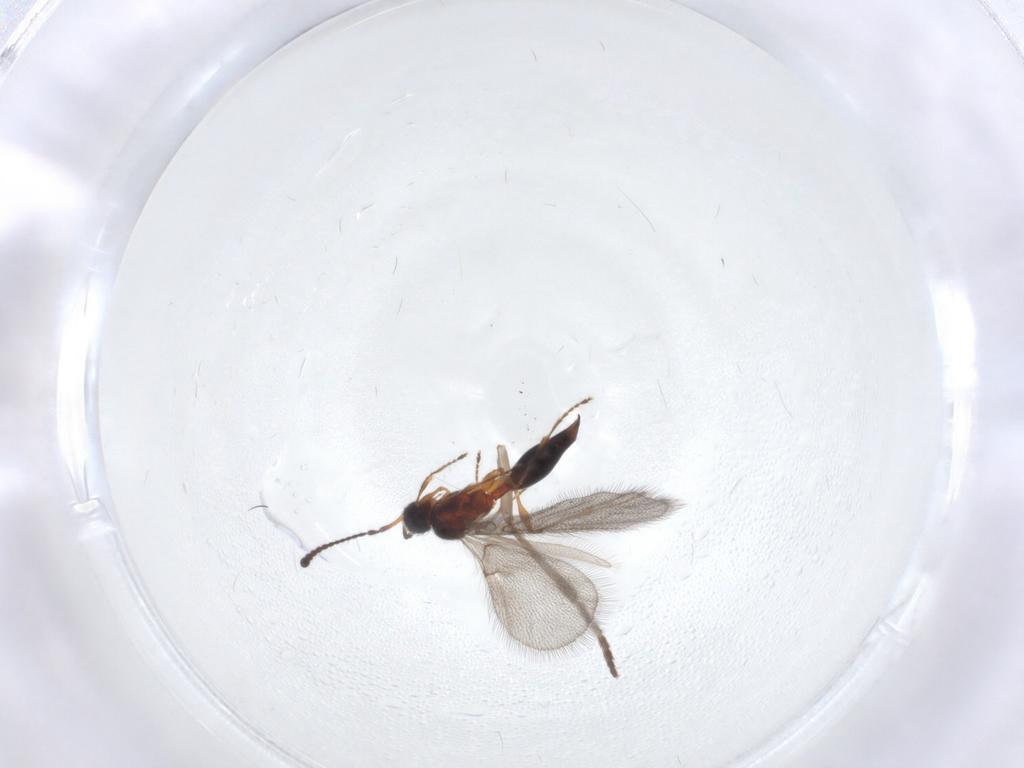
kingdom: Animalia
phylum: Arthropoda
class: Insecta
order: Hymenoptera
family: Diapriidae
